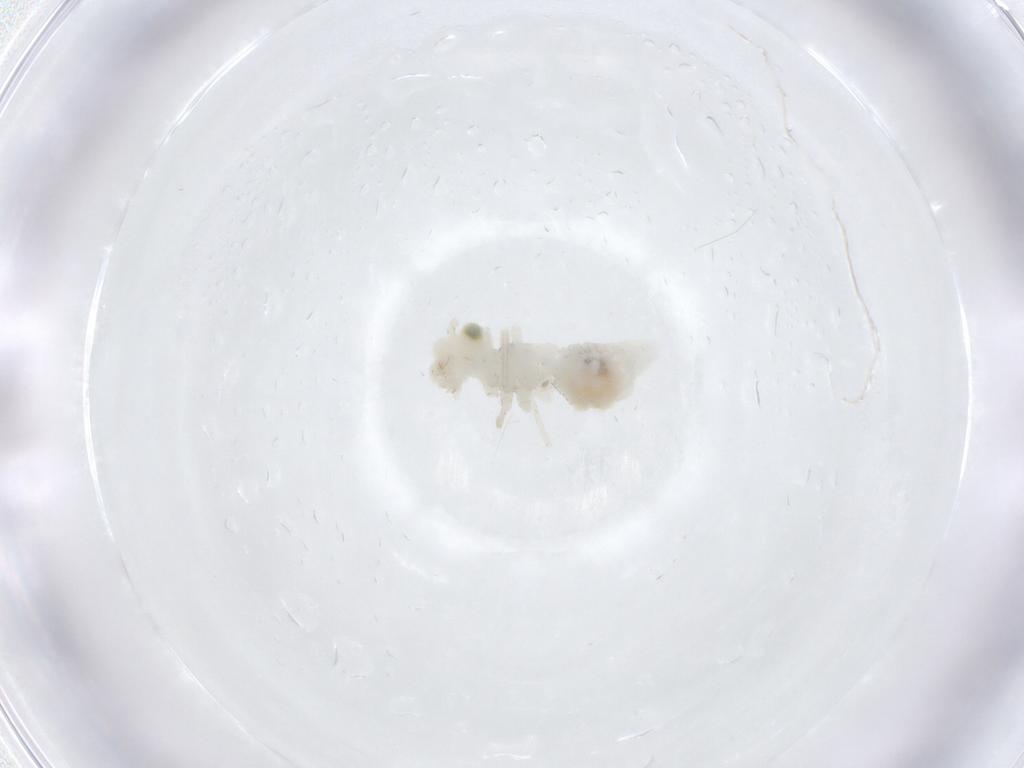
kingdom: Animalia
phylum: Arthropoda
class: Insecta
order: Psocodea
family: Caeciliusidae
